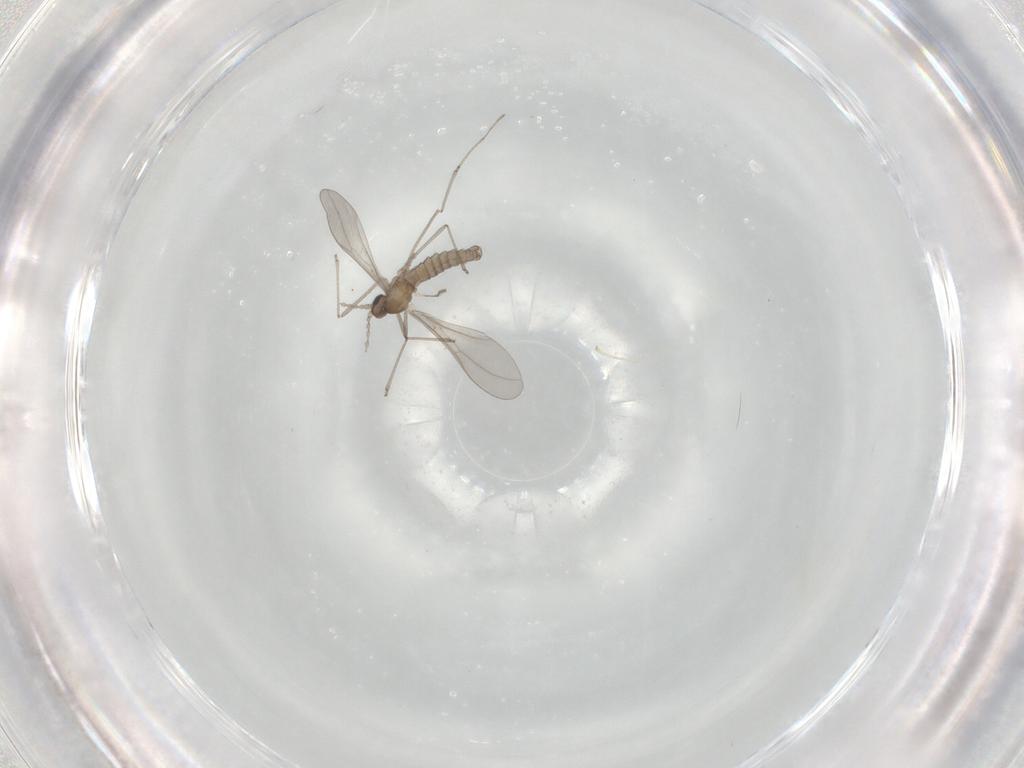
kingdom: Animalia
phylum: Arthropoda
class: Insecta
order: Diptera
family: Cecidomyiidae
